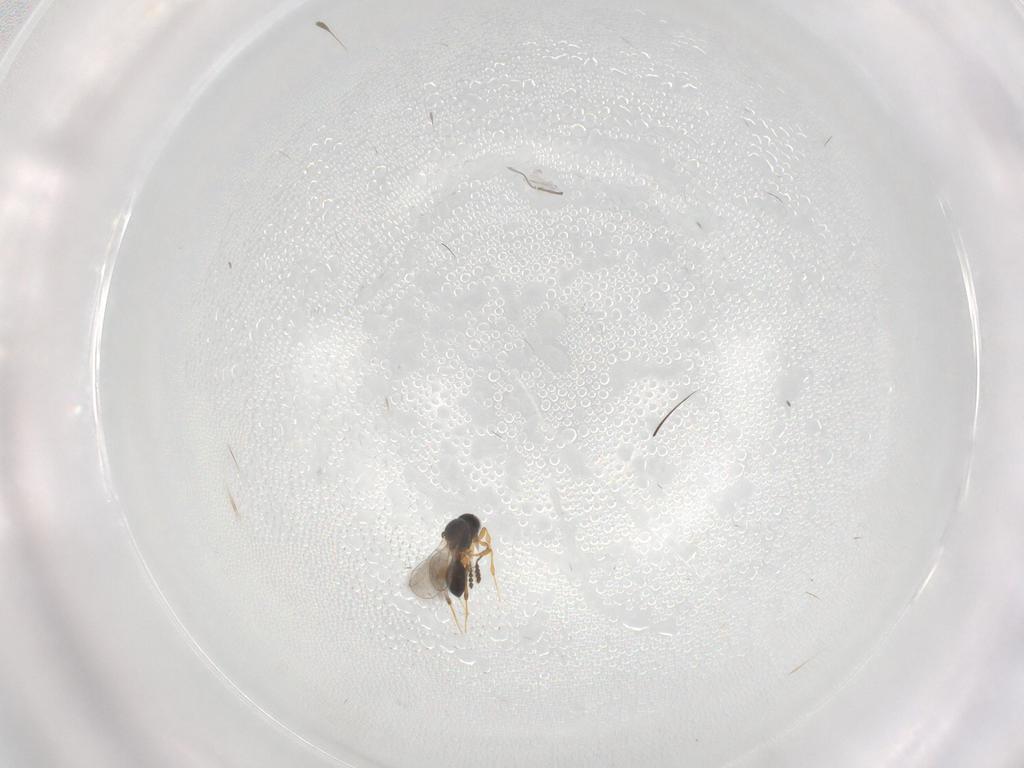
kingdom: Animalia
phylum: Arthropoda
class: Insecta
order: Hymenoptera
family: Platygastridae
